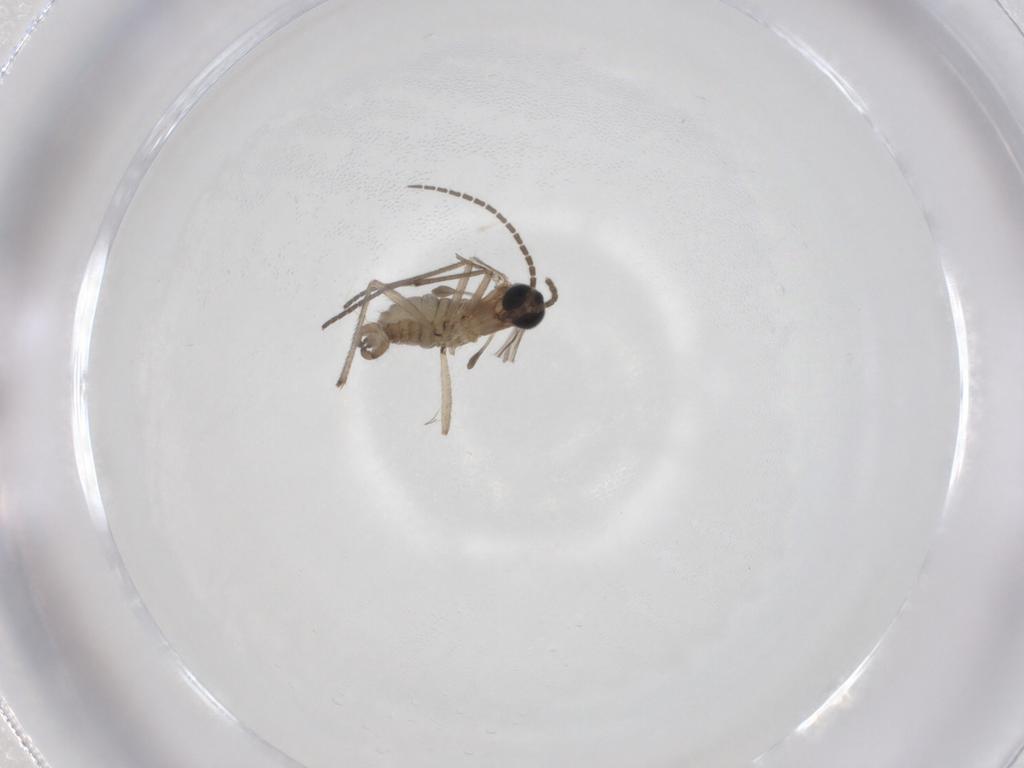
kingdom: Animalia
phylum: Arthropoda
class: Insecta
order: Diptera
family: Sciaridae
